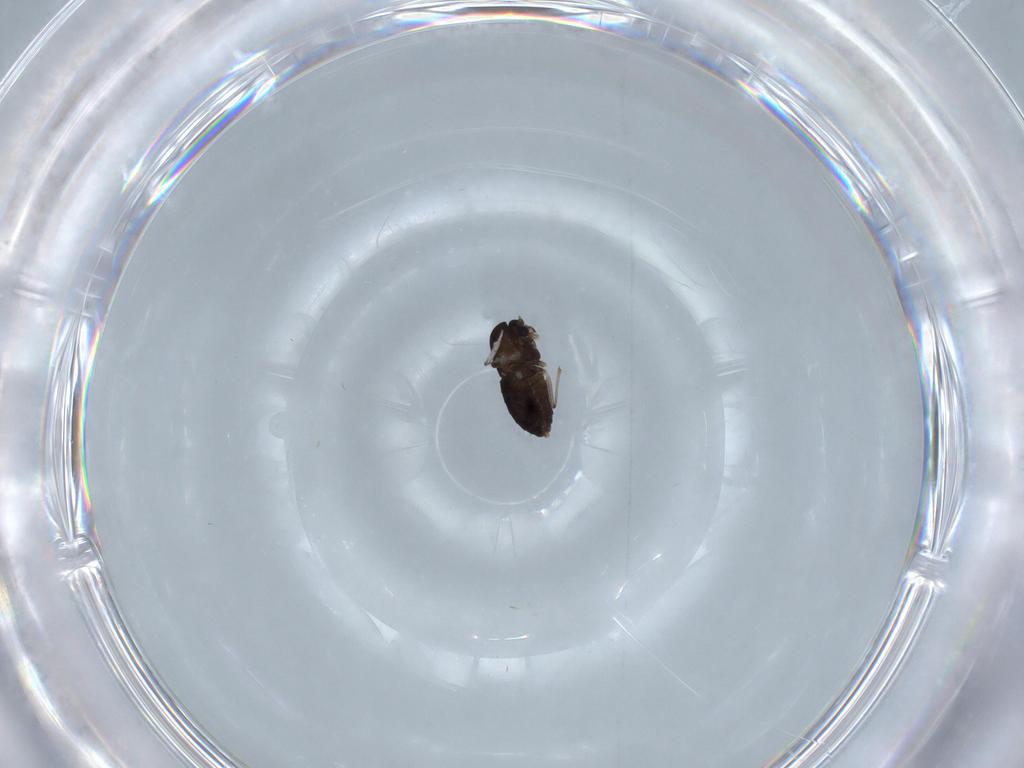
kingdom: Animalia
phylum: Arthropoda
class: Insecta
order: Diptera
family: Chironomidae
